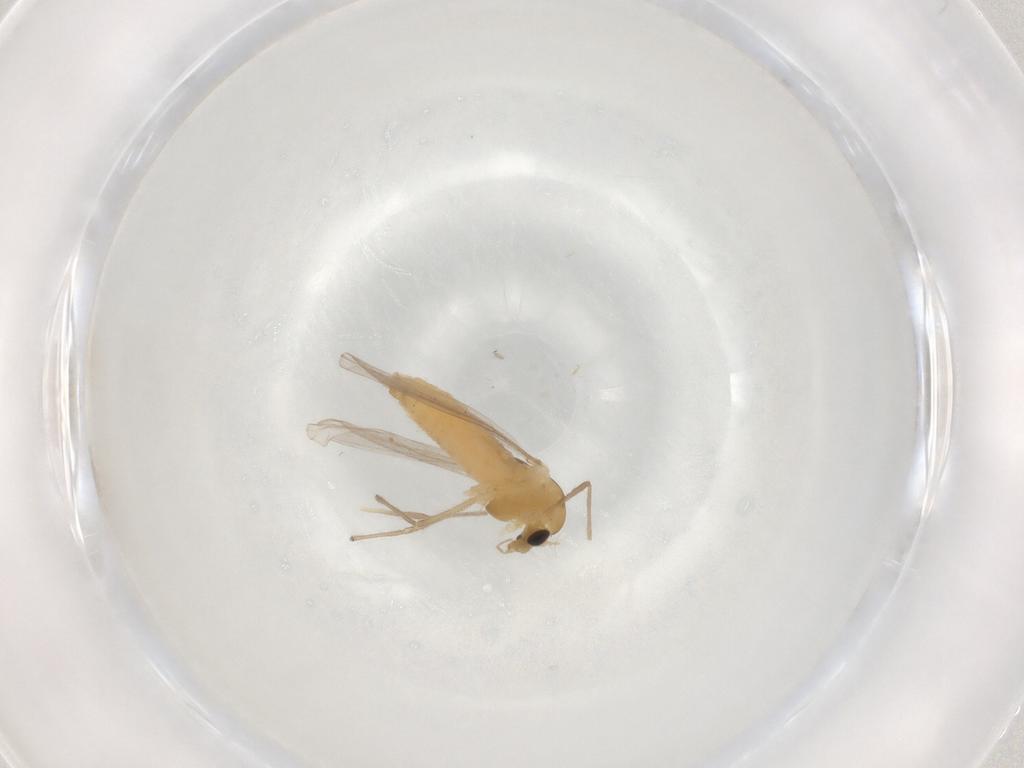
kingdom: Animalia
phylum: Arthropoda
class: Insecta
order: Diptera
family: Chironomidae
